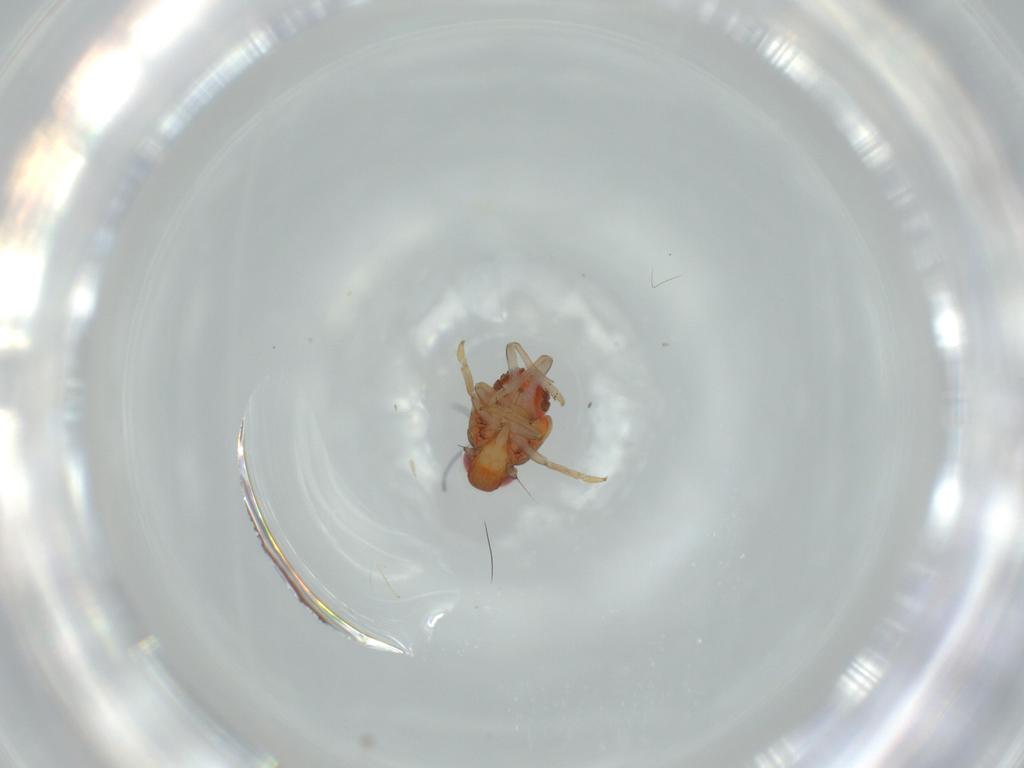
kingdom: Animalia
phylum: Arthropoda
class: Insecta
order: Hemiptera
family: Issidae
